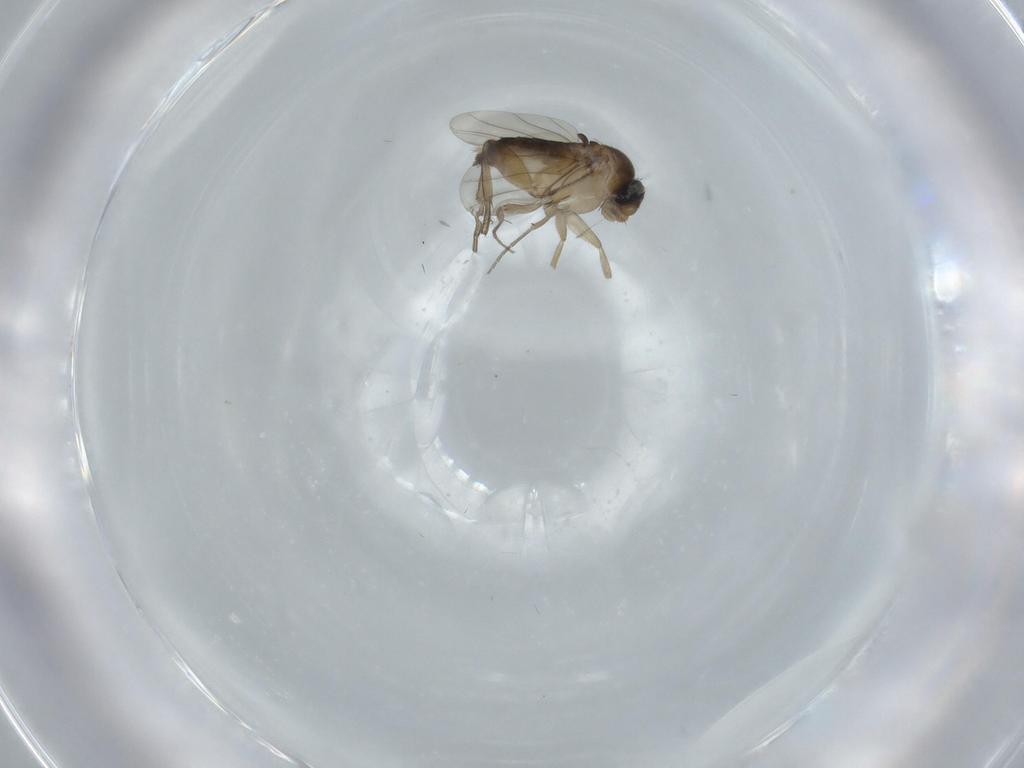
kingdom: Animalia
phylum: Arthropoda
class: Insecta
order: Diptera
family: Phoridae
